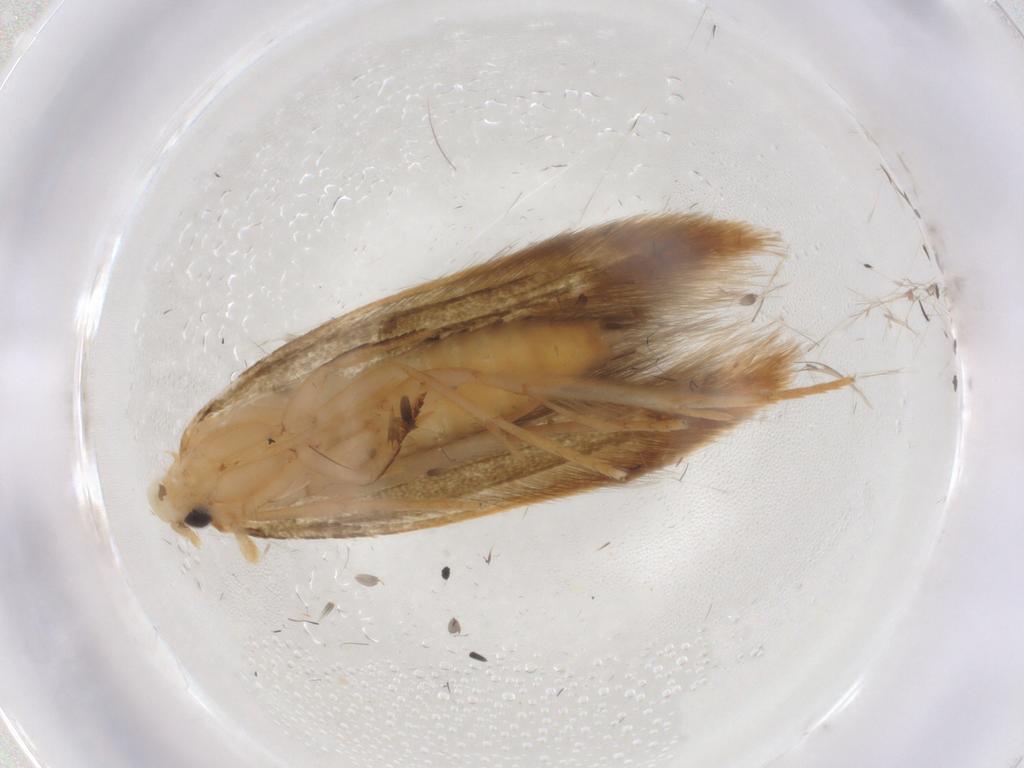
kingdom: Animalia
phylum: Arthropoda
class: Insecta
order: Lepidoptera
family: Tineidae
